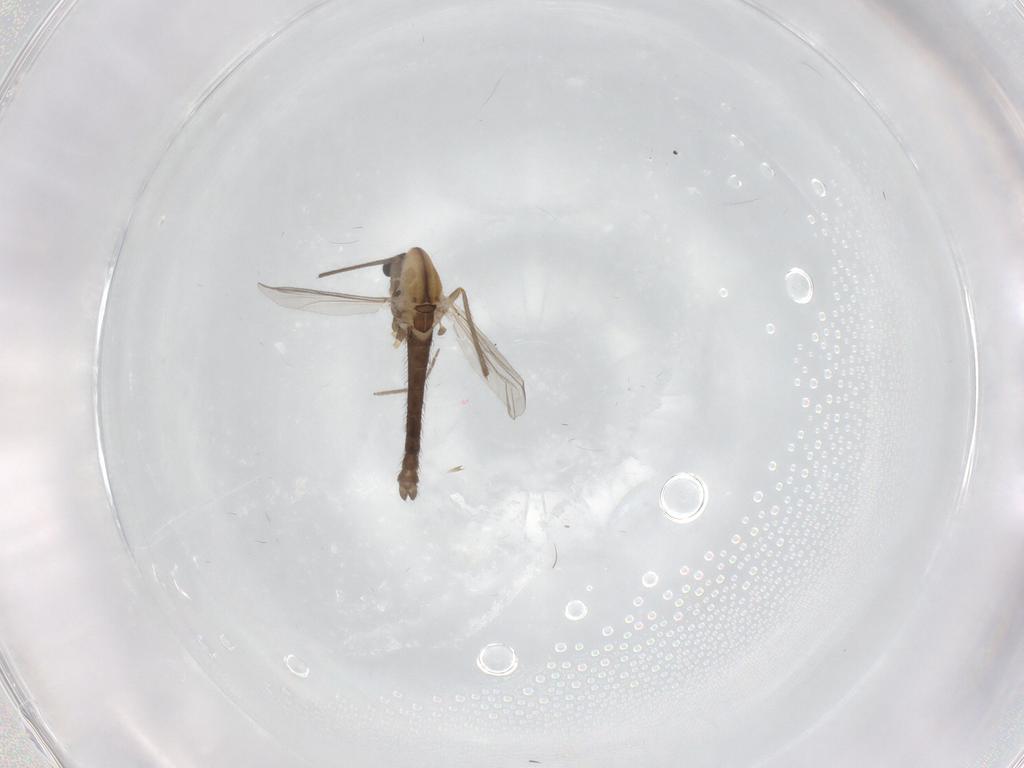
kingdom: Animalia
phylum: Arthropoda
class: Insecta
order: Diptera
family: Chironomidae
